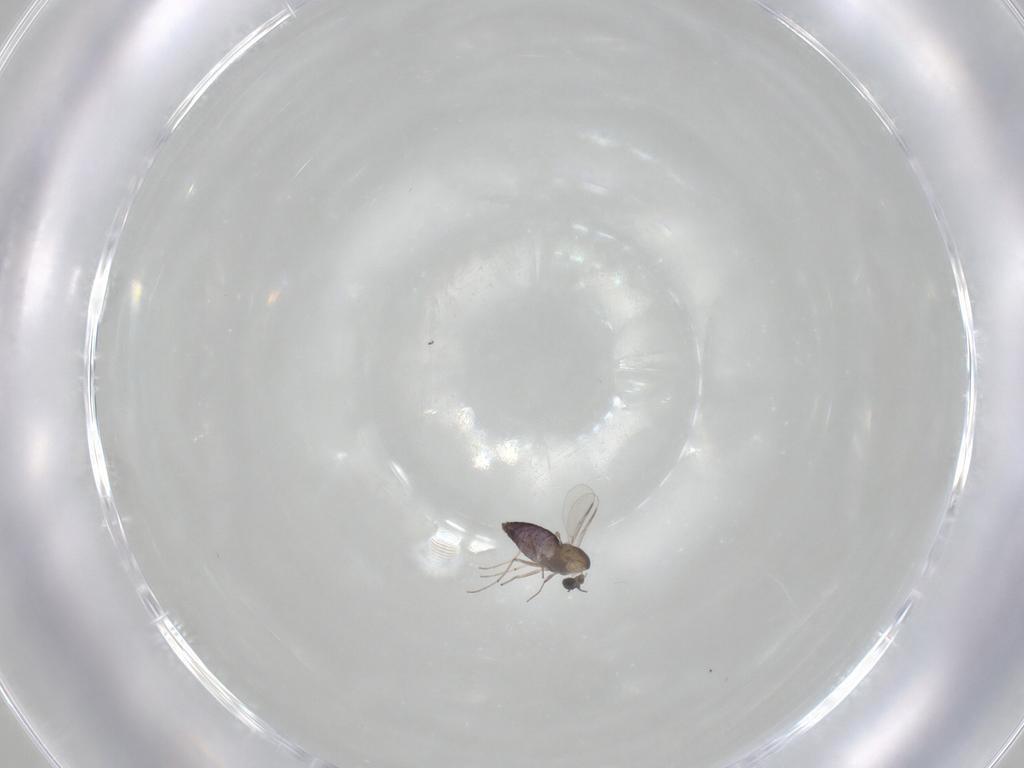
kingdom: Animalia
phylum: Arthropoda
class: Insecta
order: Diptera
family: Chironomidae
